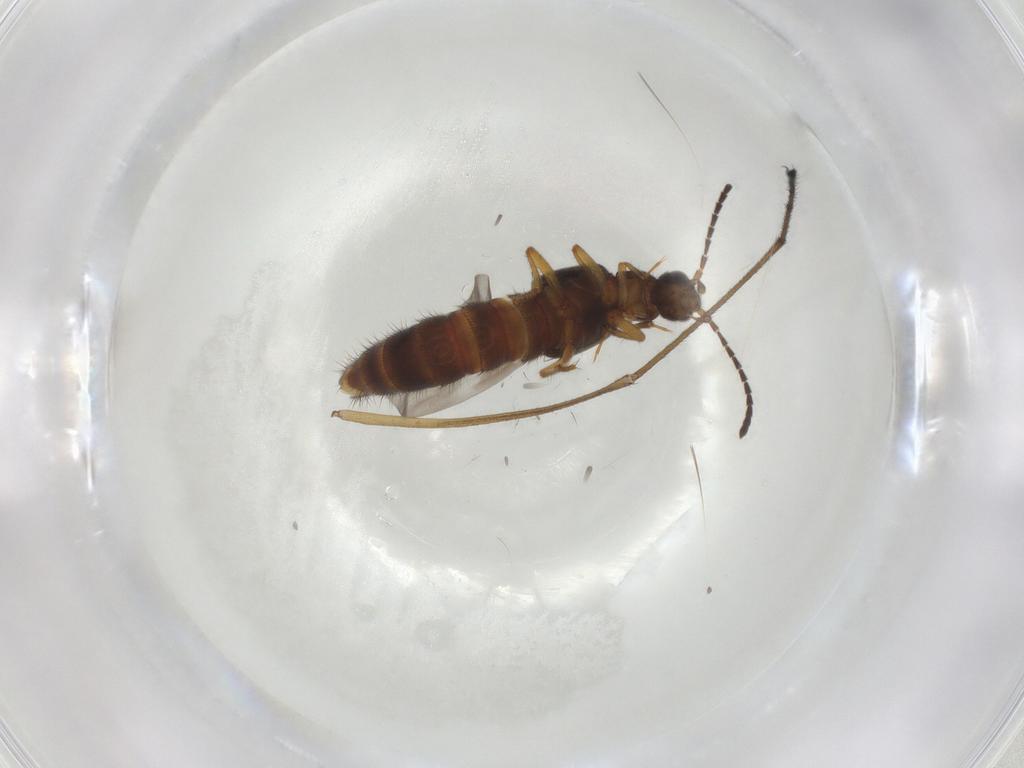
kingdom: Animalia
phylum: Arthropoda
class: Insecta
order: Coleoptera
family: Staphylinidae
